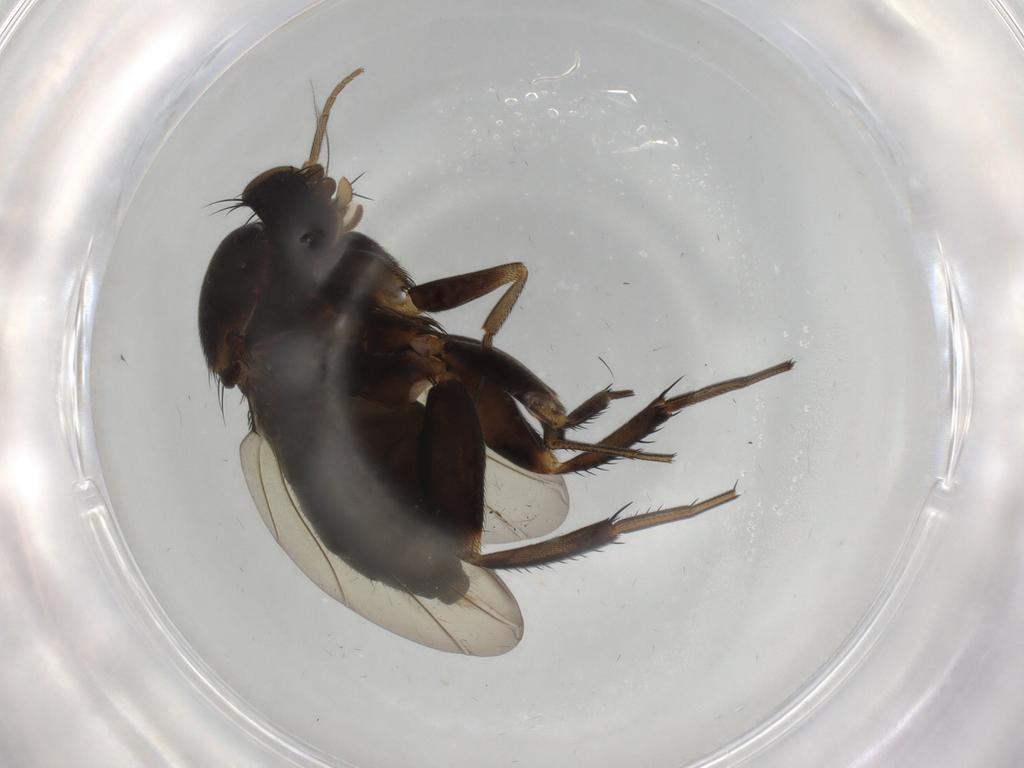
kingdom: Animalia
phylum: Arthropoda
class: Insecta
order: Diptera
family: Phoridae
